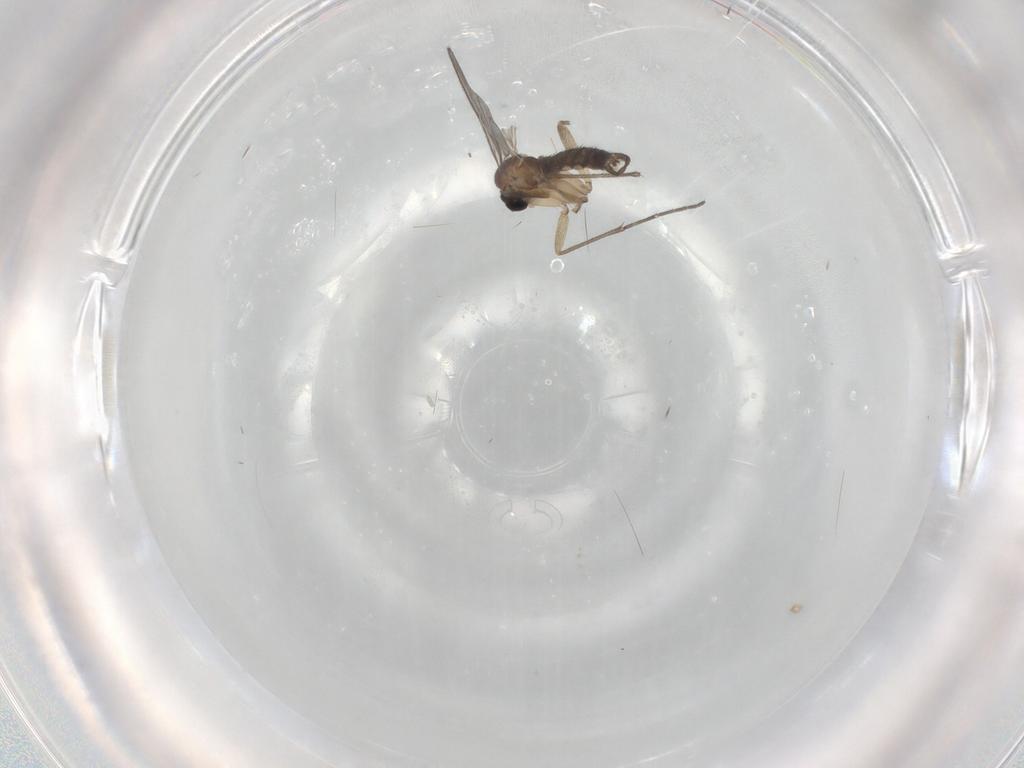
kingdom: Animalia
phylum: Arthropoda
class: Insecta
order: Diptera
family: Sciaridae
